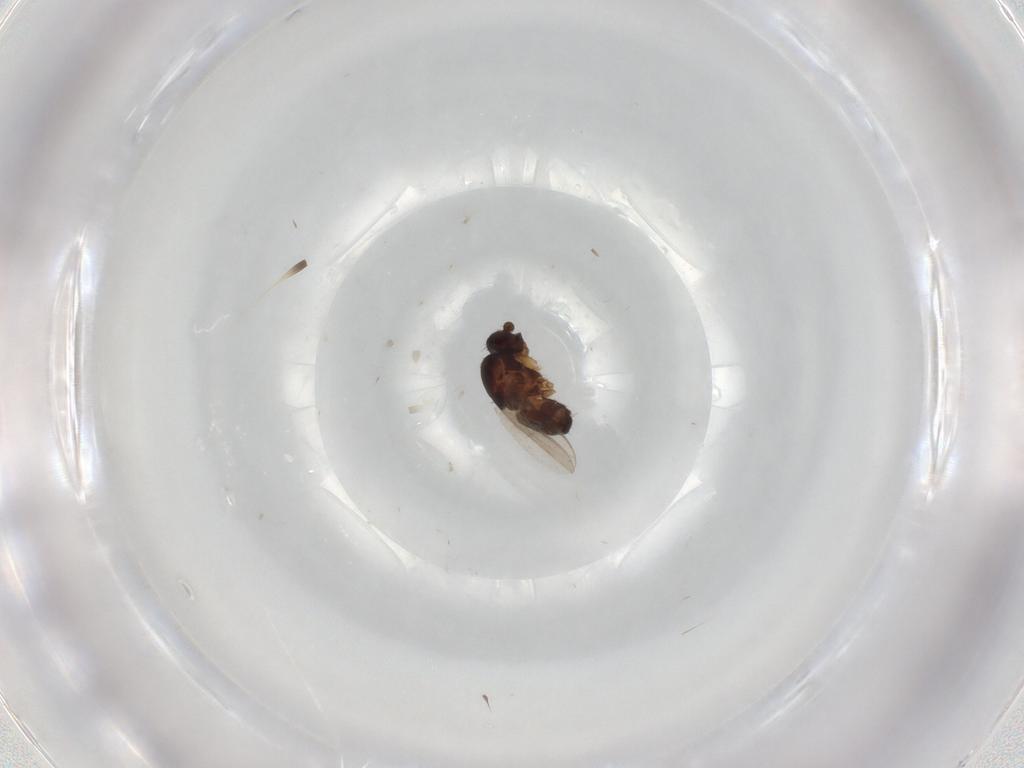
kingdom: Animalia
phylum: Arthropoda
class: Insecta
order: Diptera
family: Sphaeroceridae
